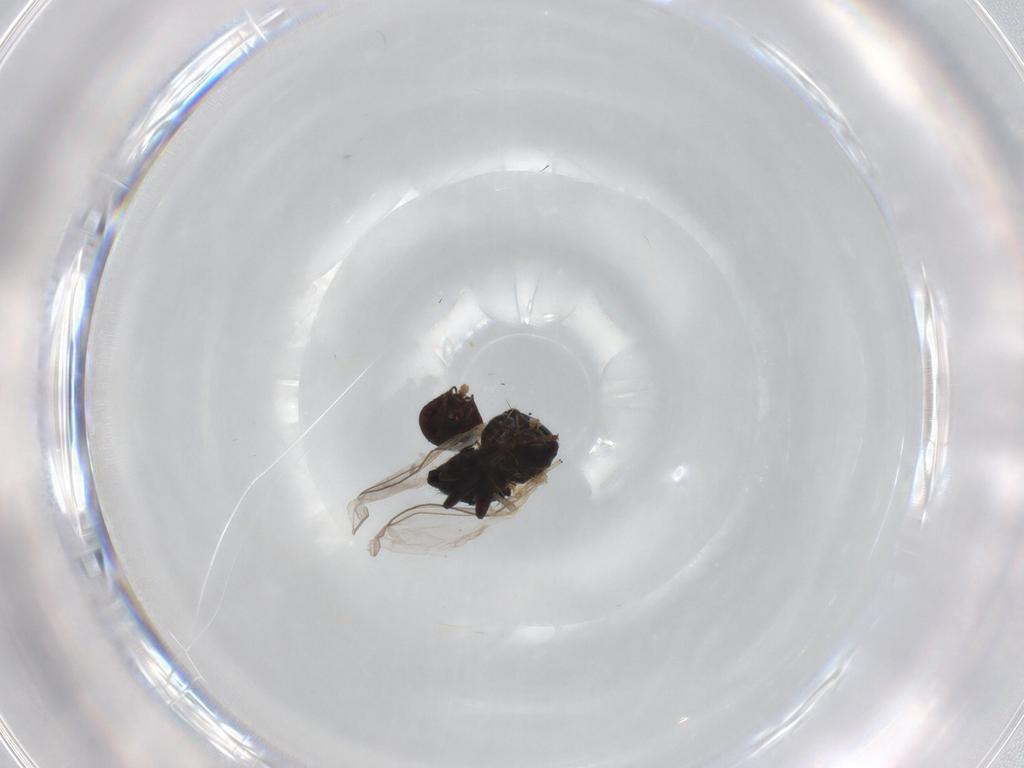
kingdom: Animalia
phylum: Arthropoda
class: Insecta
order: Diptera
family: Agromyzidae
